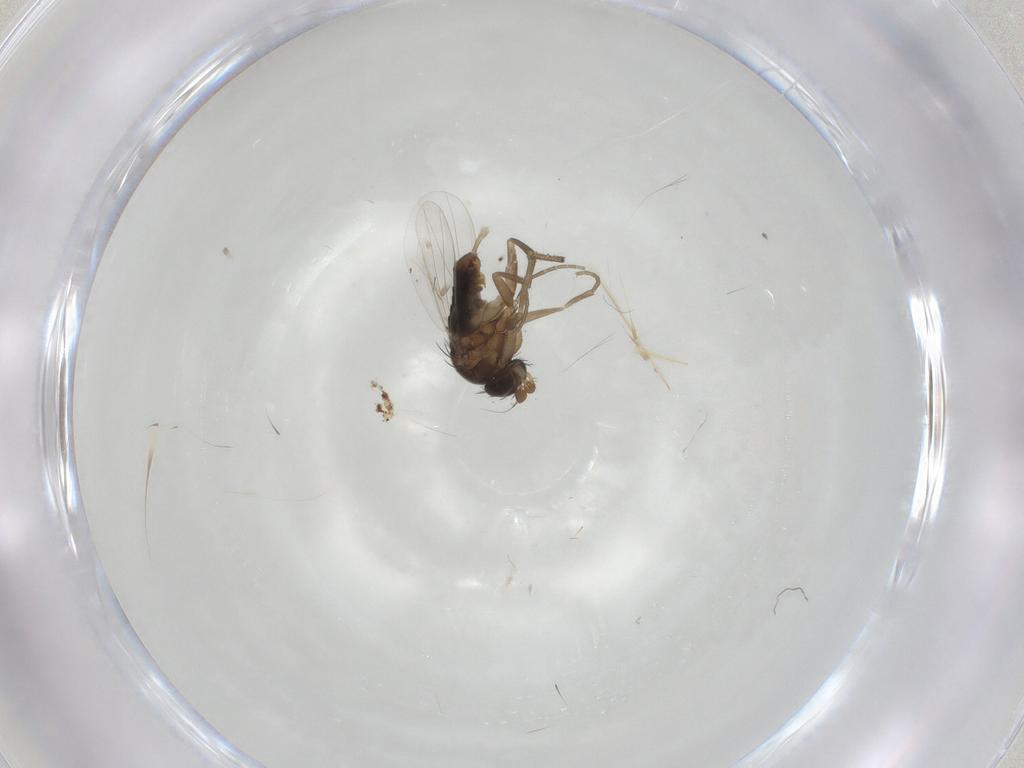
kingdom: Animalia
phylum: Arthropoda
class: Insecta
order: Diptera
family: Phoridae
